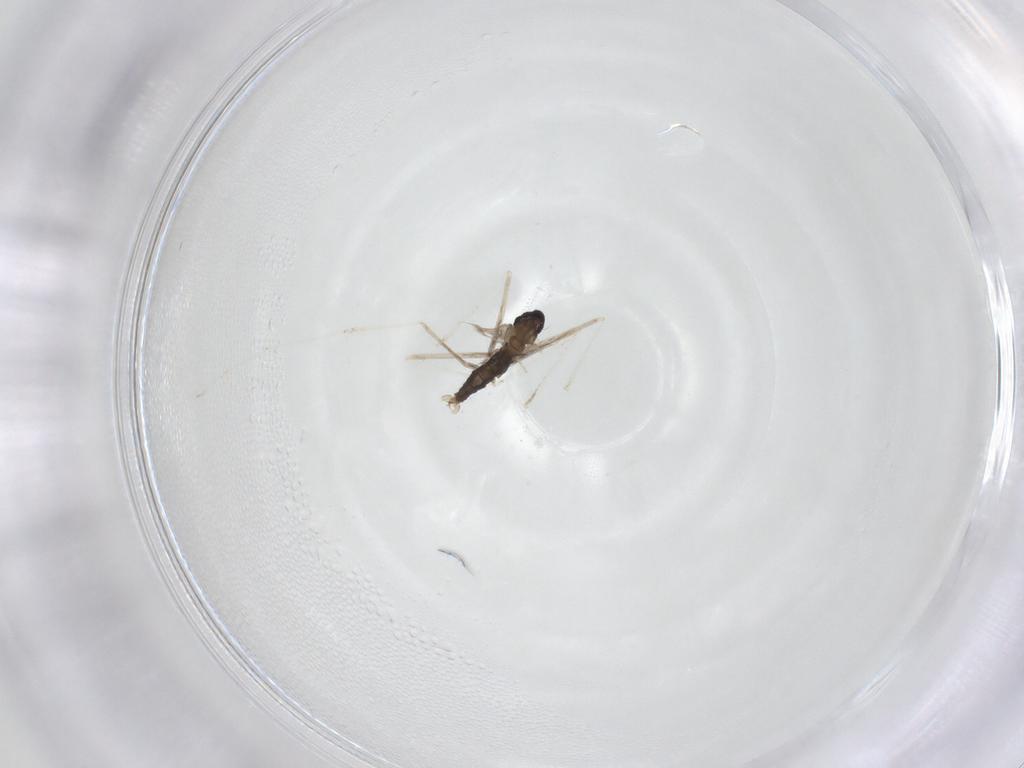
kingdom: Animalia
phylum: Arthropoda
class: Insecta
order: Diptera
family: Cecidomyiidae
